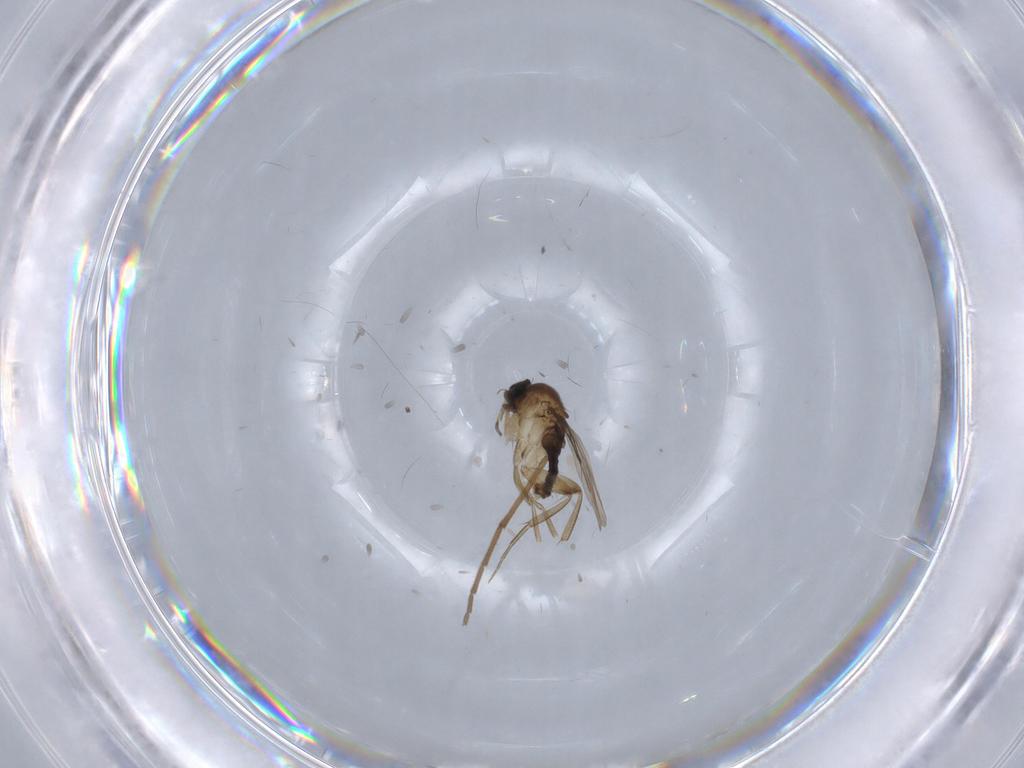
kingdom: Animalia
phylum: Arthropoda
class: Insecta
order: Diptera
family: Phoridae
